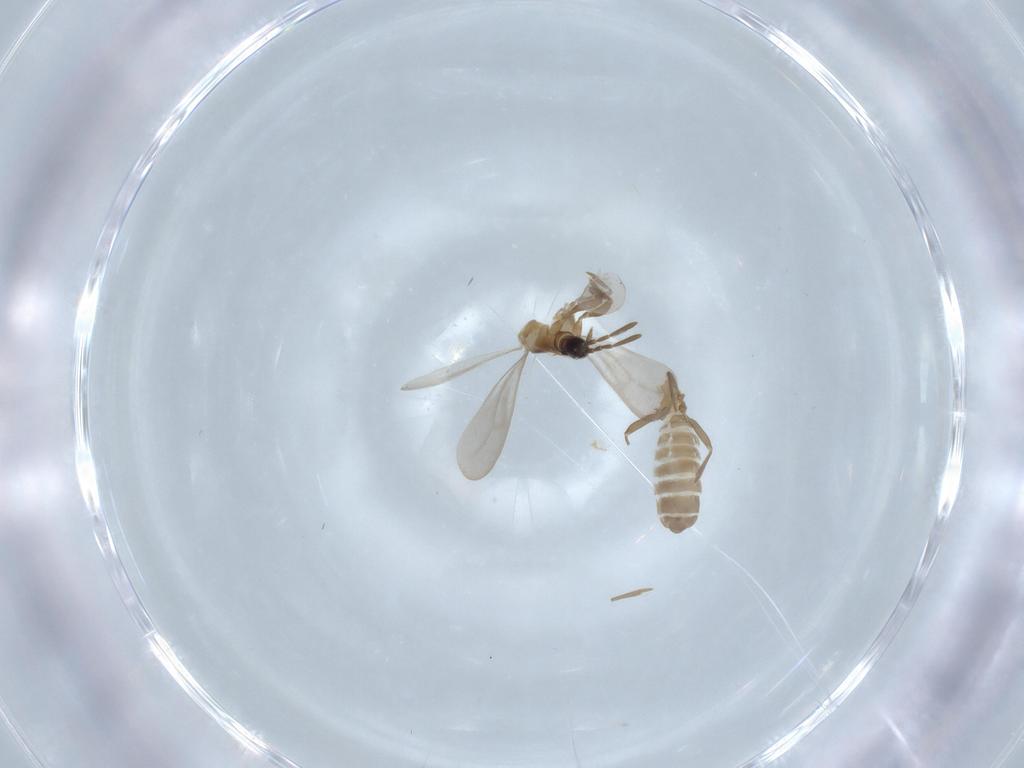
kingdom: Animalia
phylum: Arthropoda
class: Insecta
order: Hemiptera
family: Enicocephalidae
